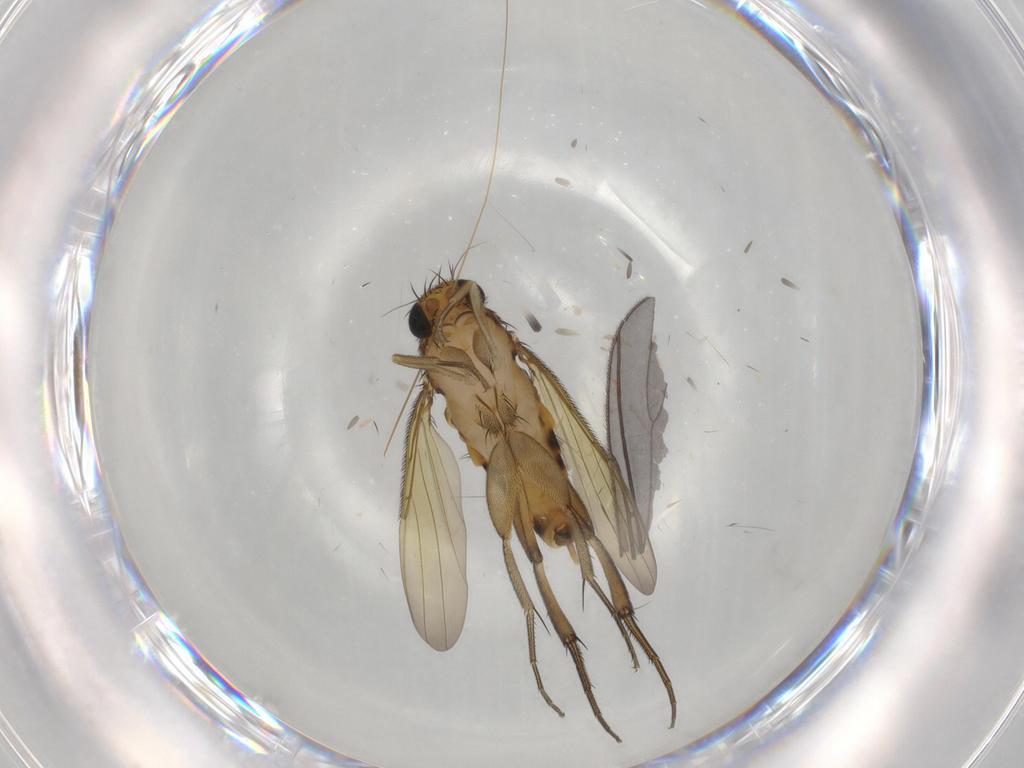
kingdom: Animalia
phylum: Arthropoda
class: Insecta
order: Diptera
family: Phoridae
